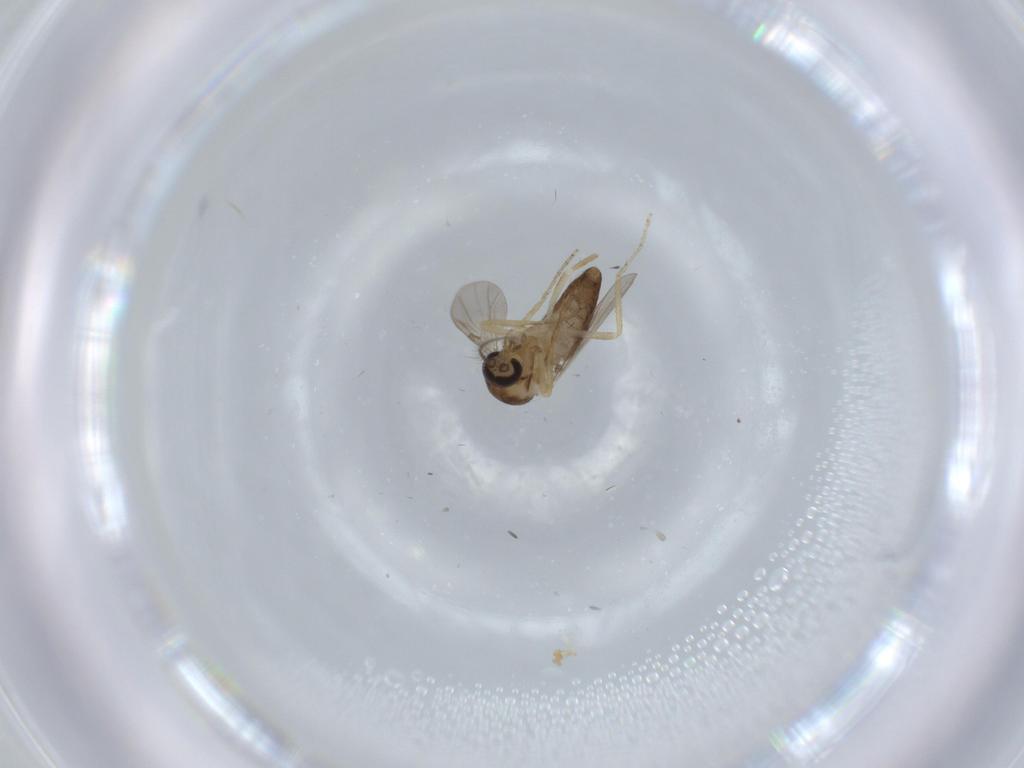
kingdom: Animalia
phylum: Arthropoda
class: Insecta
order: Diptera
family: Ceratopogonidae
